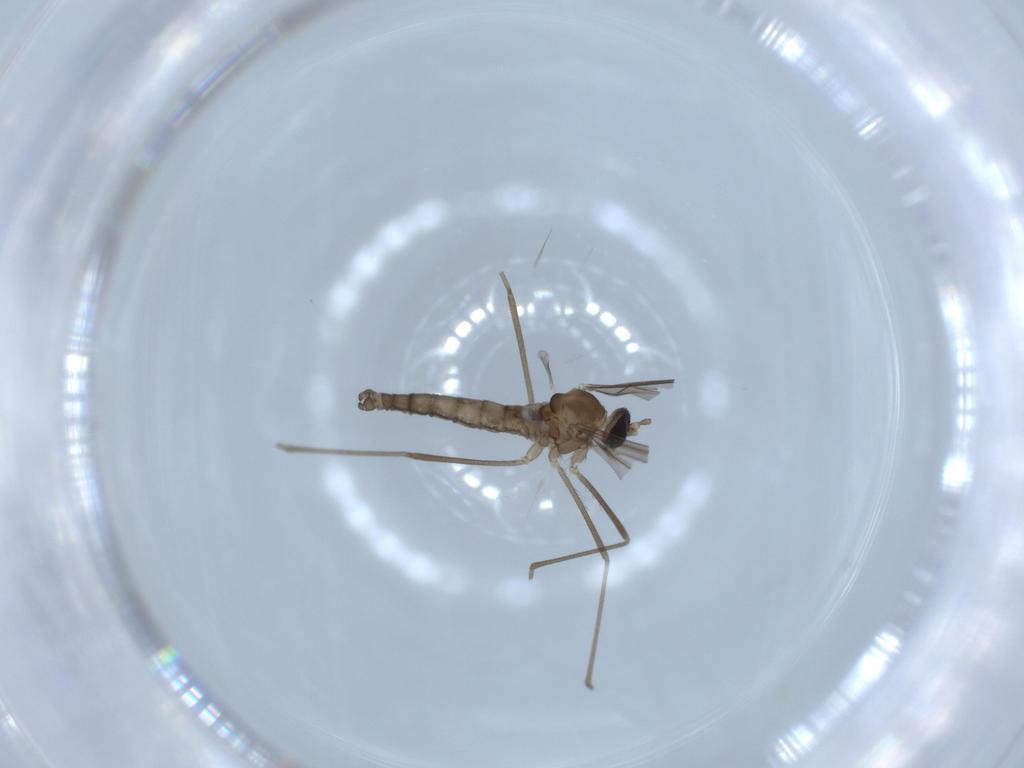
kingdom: Animalia
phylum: Arthropoda
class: Insecta
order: Diptera
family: Cecidomyiidae
